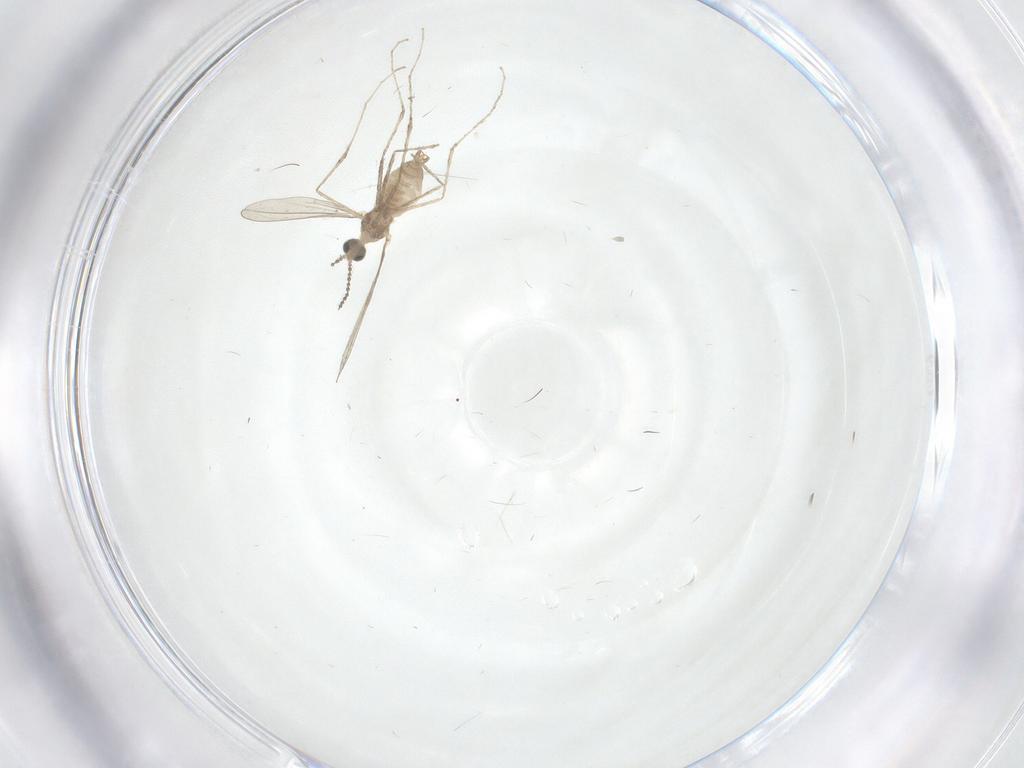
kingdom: Animalia
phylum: Arthropoda
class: Insecta
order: Diptera
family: Cecidomyiidae
